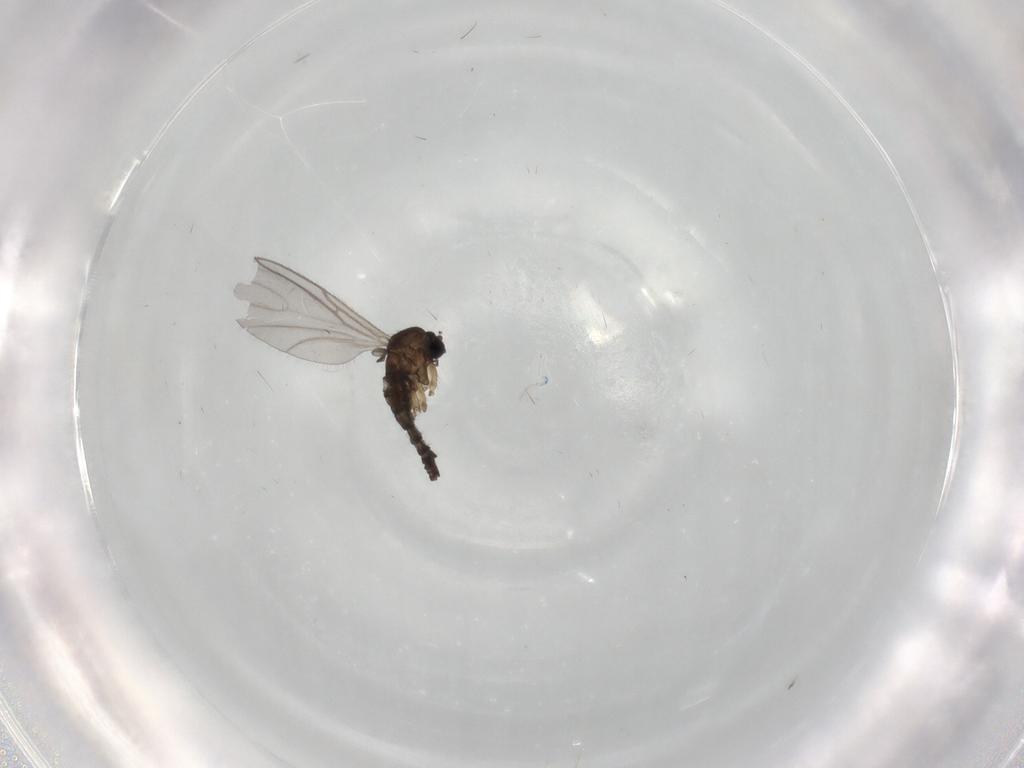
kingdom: Animalia
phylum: Arthropoda
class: Insecta
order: Diptera
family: Sciaridae
